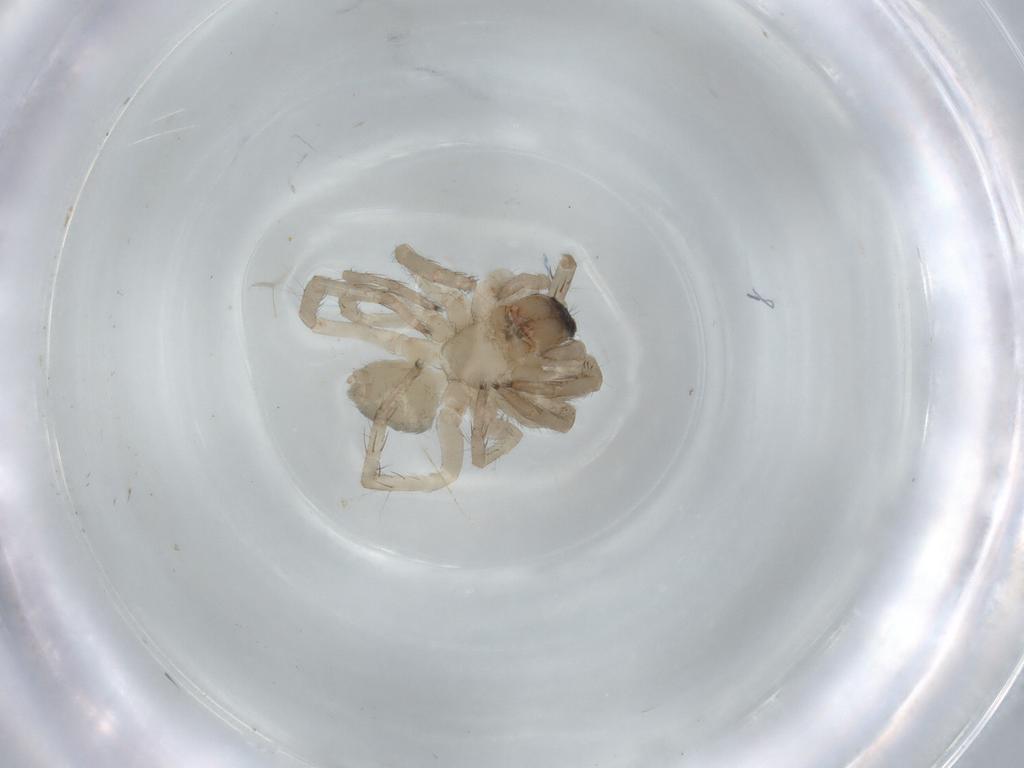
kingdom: Animalia
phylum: Arthropoda
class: Arachnida
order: Araneae
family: Lycosidae
